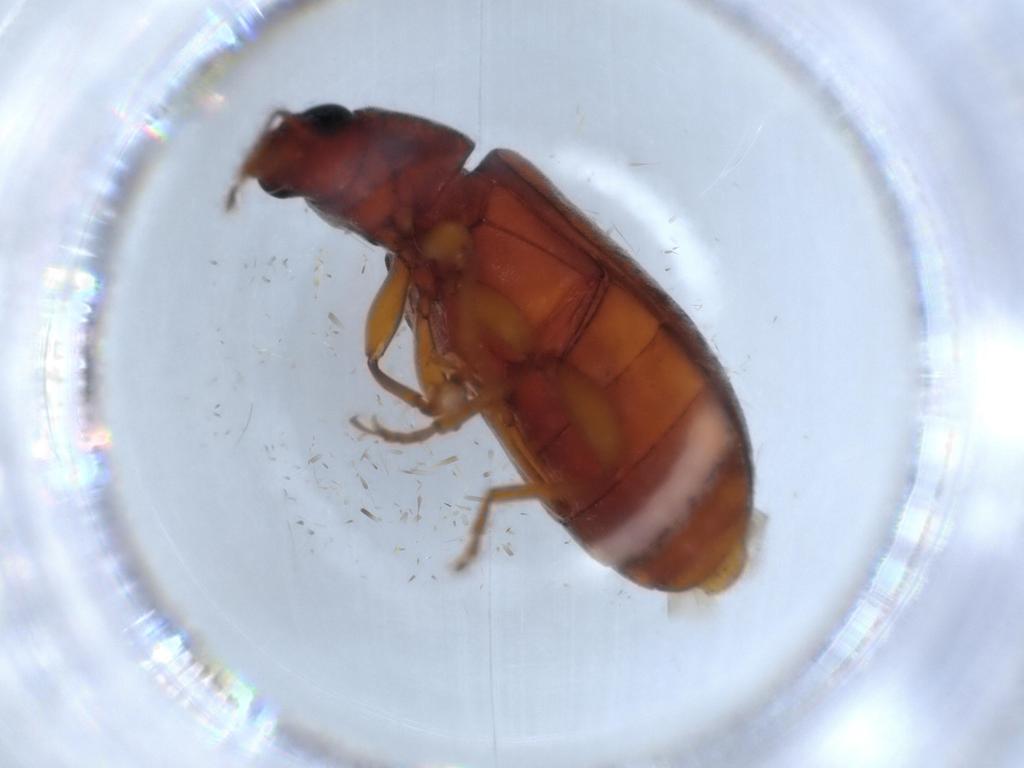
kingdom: Animalia
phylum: Arthropoda
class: Insecta
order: Coleoptera
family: Mycteridae
